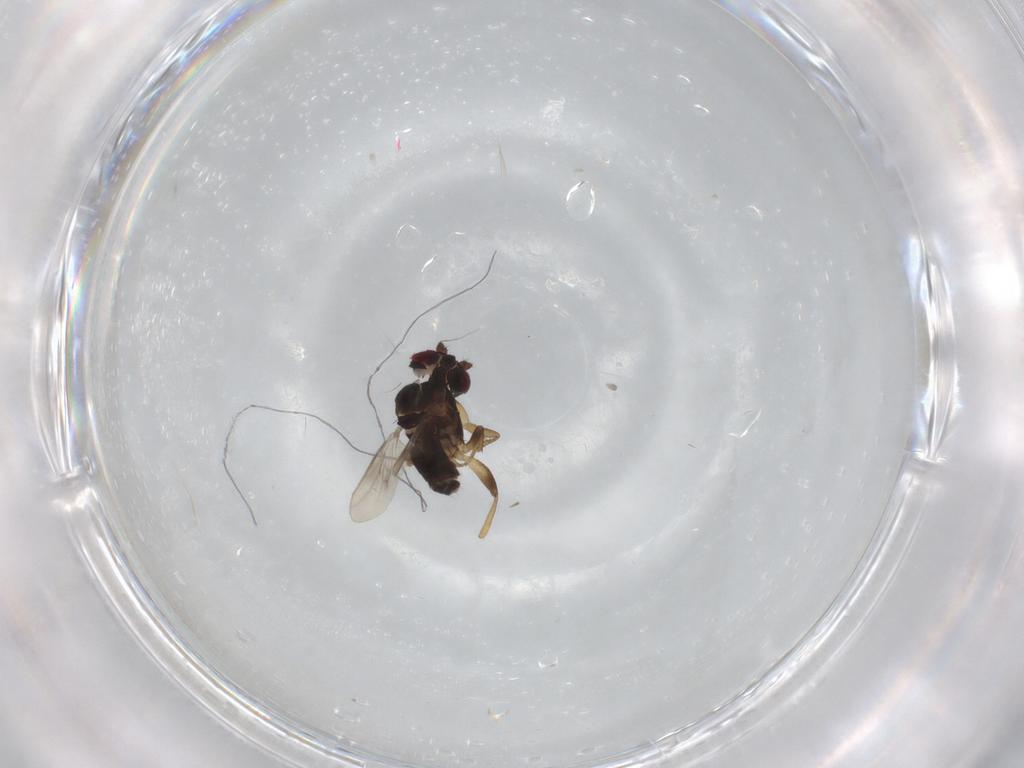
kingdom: Animalia
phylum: Arthropoda
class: Insecta
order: Diptera
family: Sphaeroceridae
